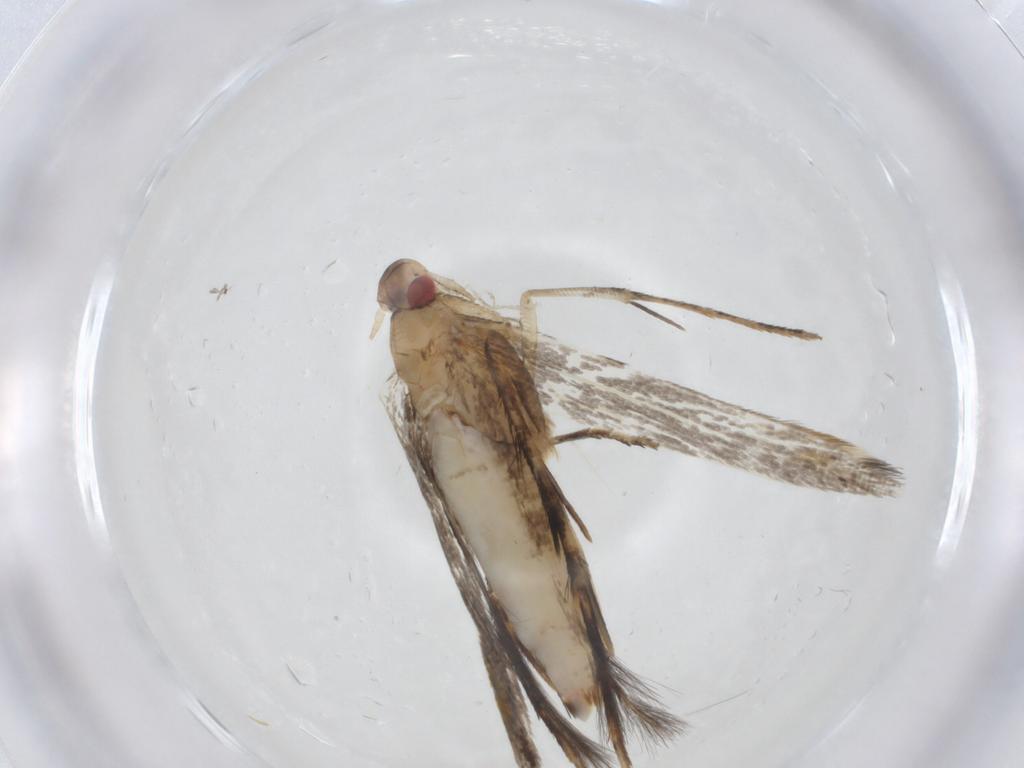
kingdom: Animalia
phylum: Arthropoda
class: Insecta
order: Lepidoptera
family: Cosmopterigidae
